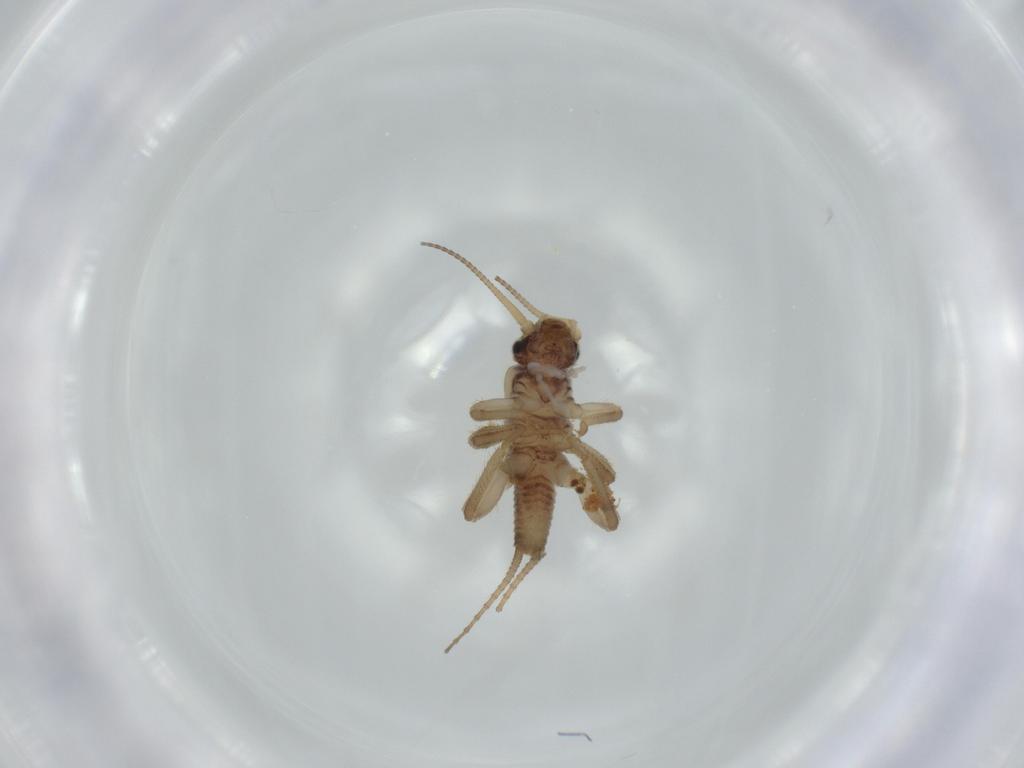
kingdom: Animalia
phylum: Arthropoda
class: Insecta
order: Plecoptera
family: Nemouridae
